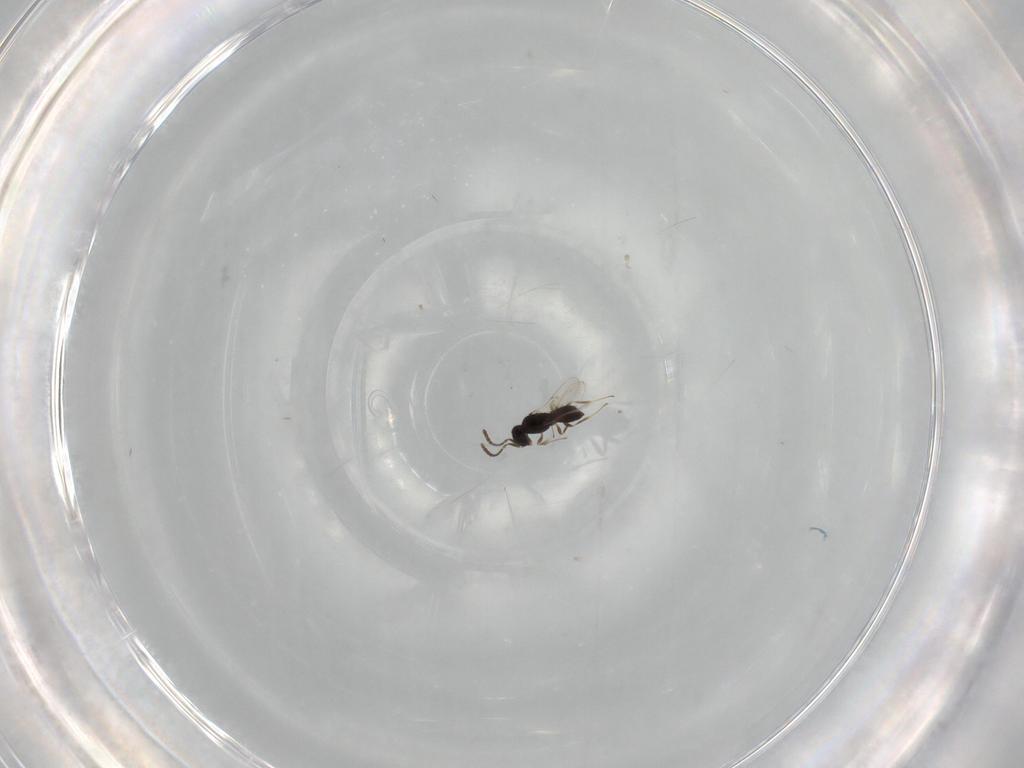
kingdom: Animalia
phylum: Arthropoda
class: Insecta
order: Hymenoptera
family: Scelionidae
